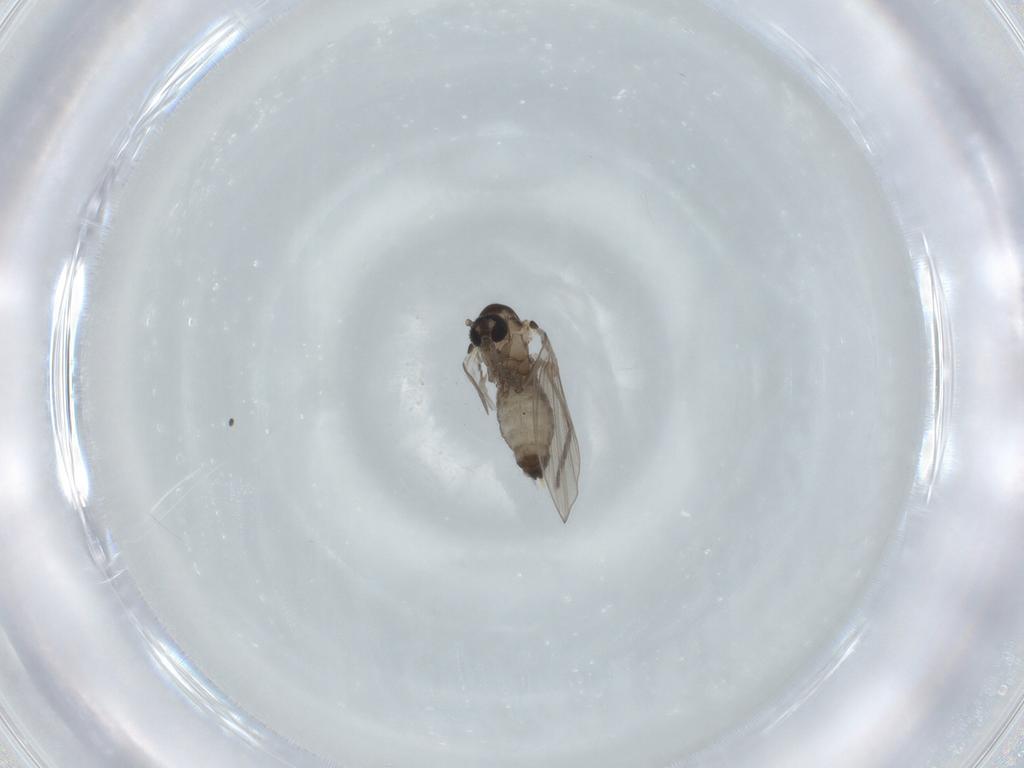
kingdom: Animalia
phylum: Arthropoda
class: Insecta
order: Diptera
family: Psychodidae
